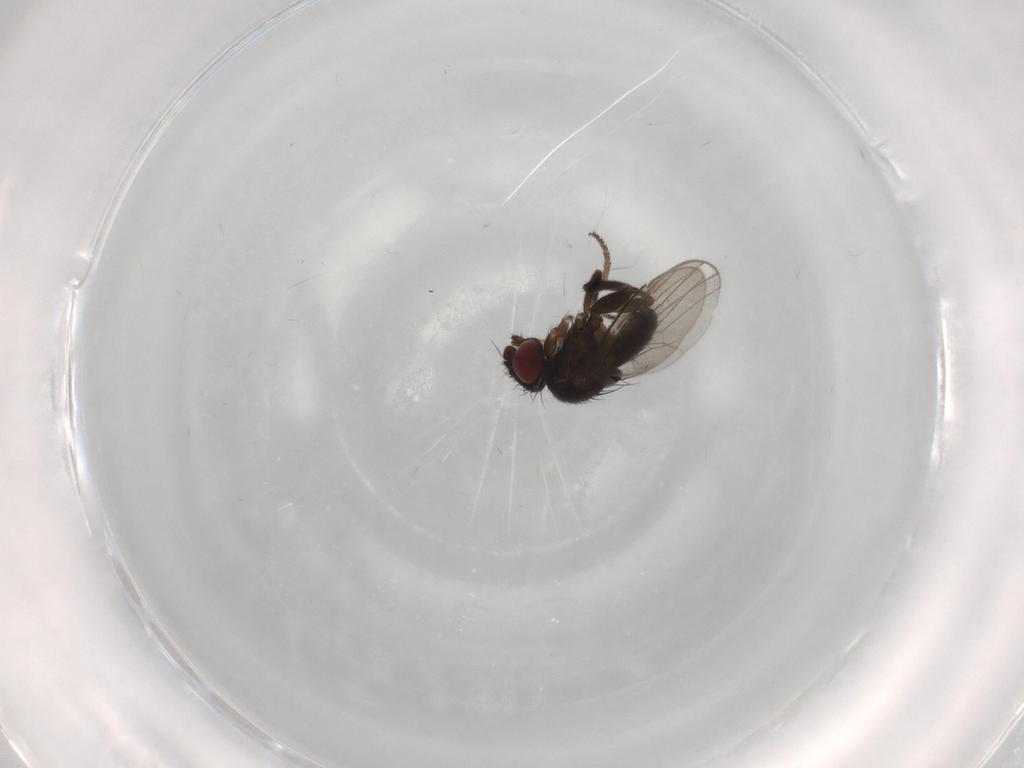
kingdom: Animalia
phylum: Arthropoda
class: Insecta
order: Diptera
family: Milichiidae
